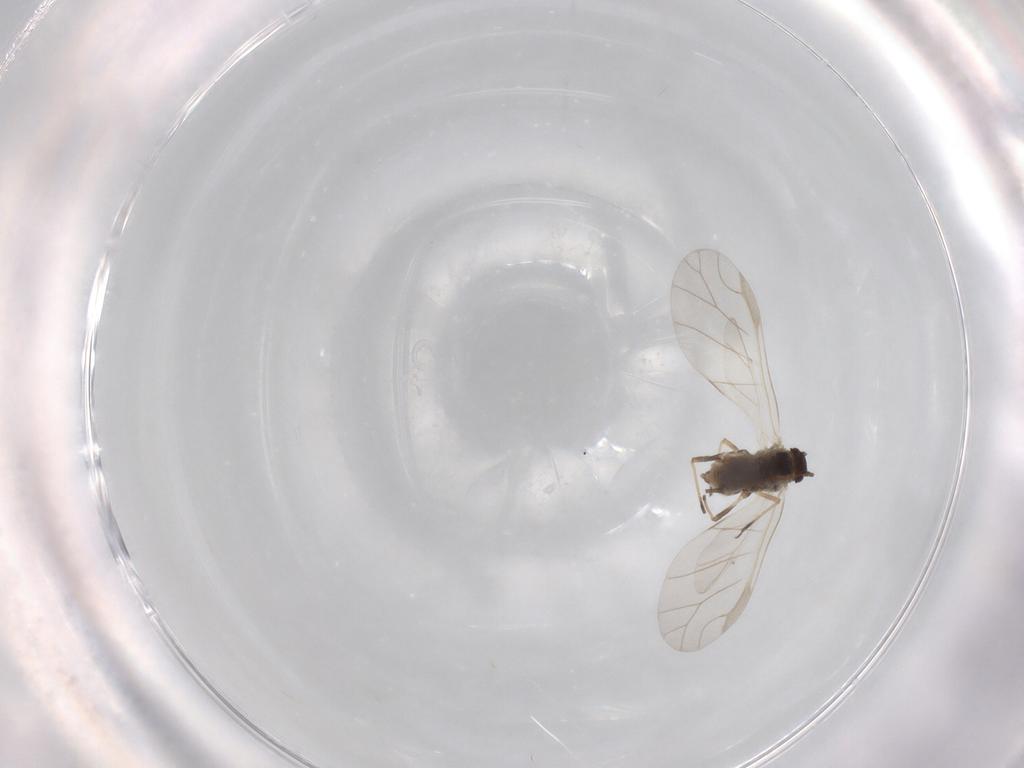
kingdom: Animalia
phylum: Arthropoda
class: Insecta
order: Hemiptera
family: Aphididae
